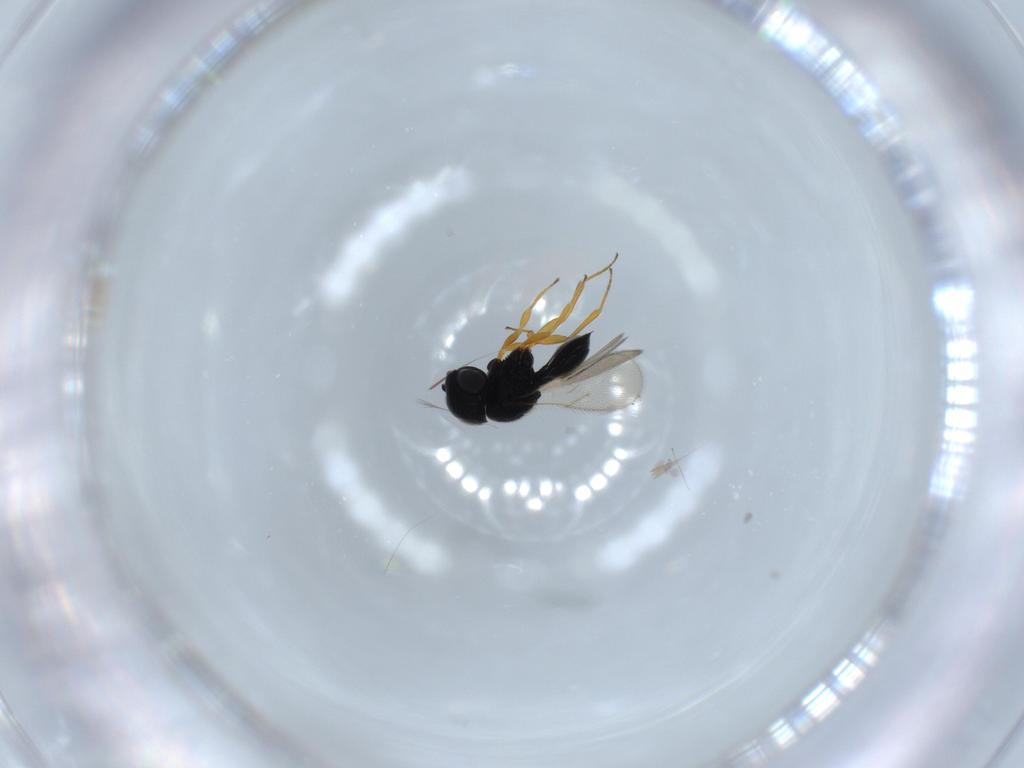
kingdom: Animalia
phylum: Arthropoda
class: Insecta
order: Hymenoptera
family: Scelionidae
